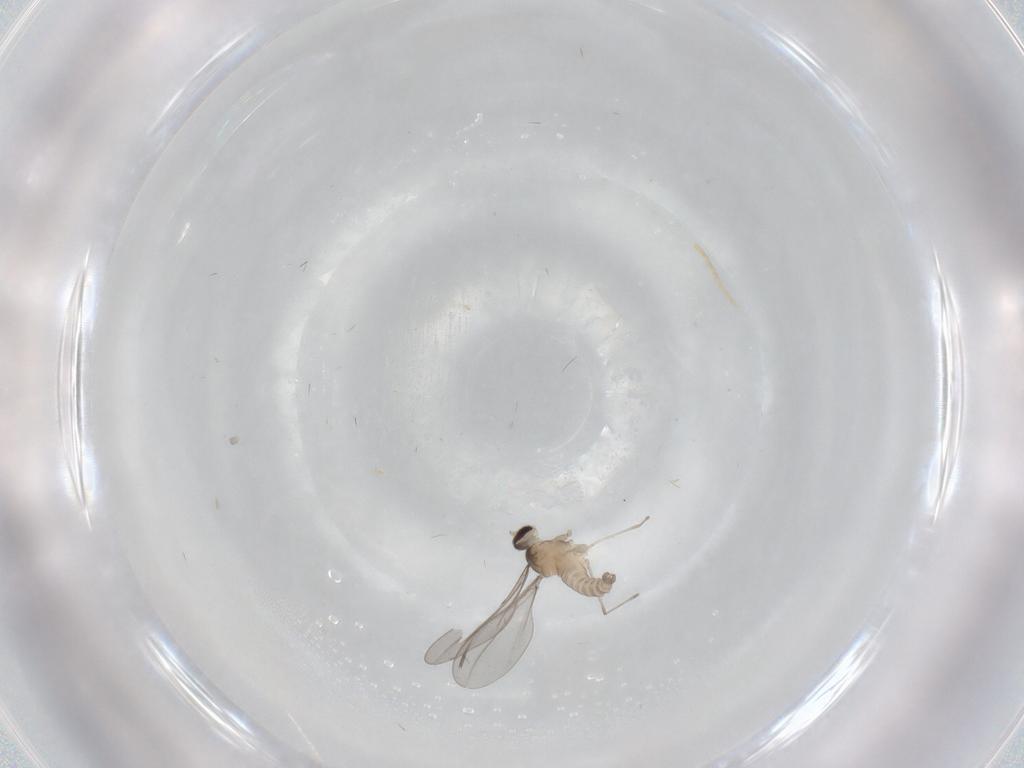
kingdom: Animalia
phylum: Arthropoda
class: Insecta
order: Diptera
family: Cecidomyiidae
